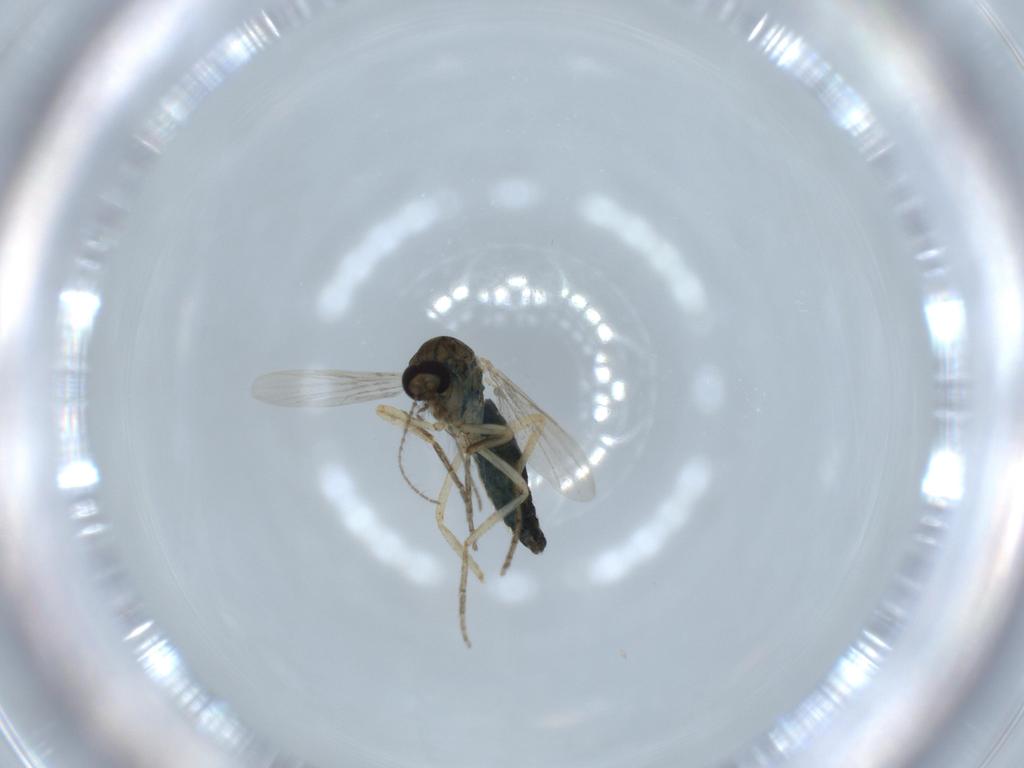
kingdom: Animalia
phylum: Arthropoda
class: Insecta
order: Diptera
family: Ceratopogonidae
